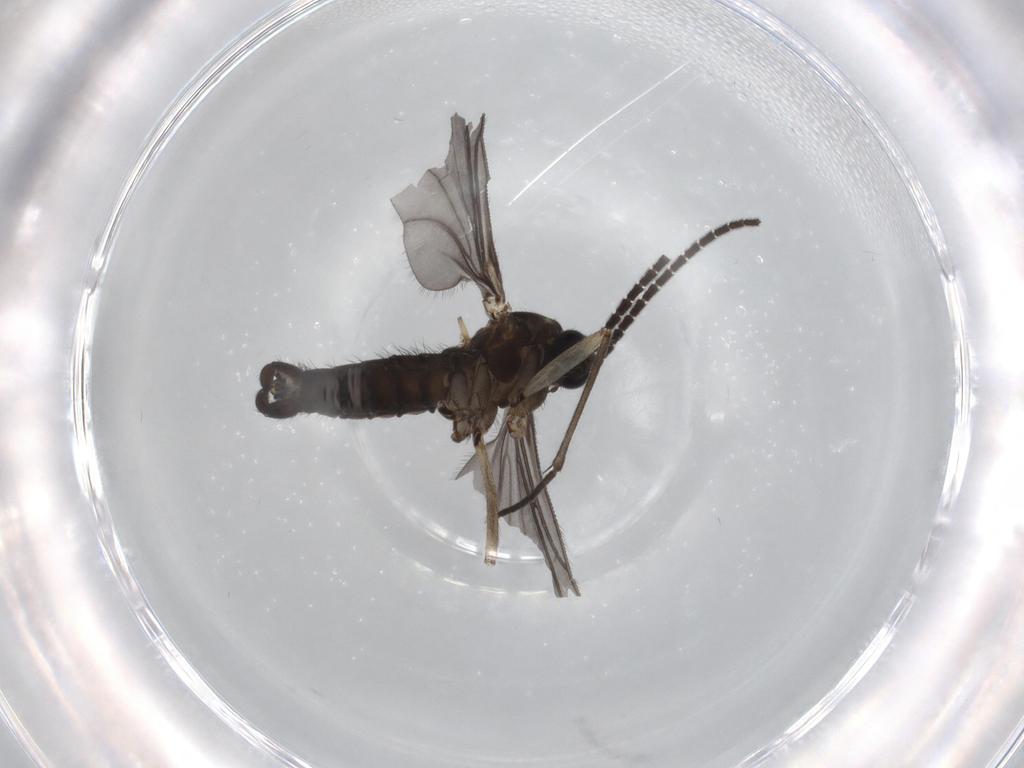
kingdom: Animalia
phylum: Arthropoda
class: Insecta
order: Diptera
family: Sciaridae
